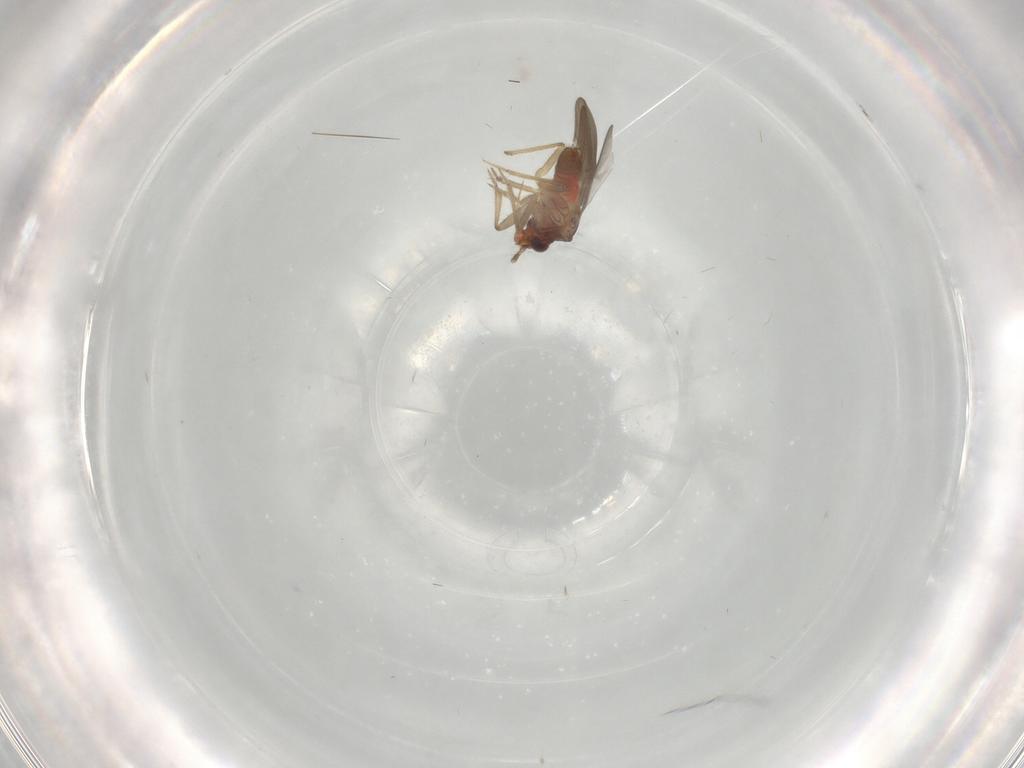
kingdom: Animalia
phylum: Arthropoda
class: Insecta
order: Hemiptera
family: Ceratocombidae
